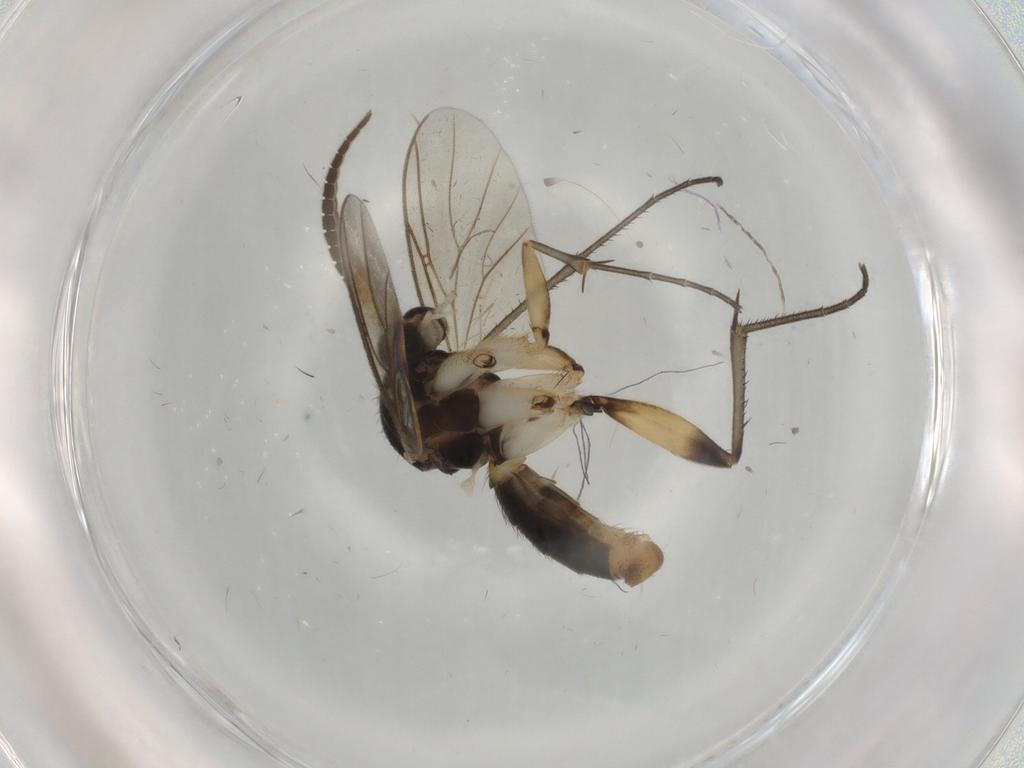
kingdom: Animalia
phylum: Arthropoda
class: Insecta
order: Diptera
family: Cecidomyiidae
